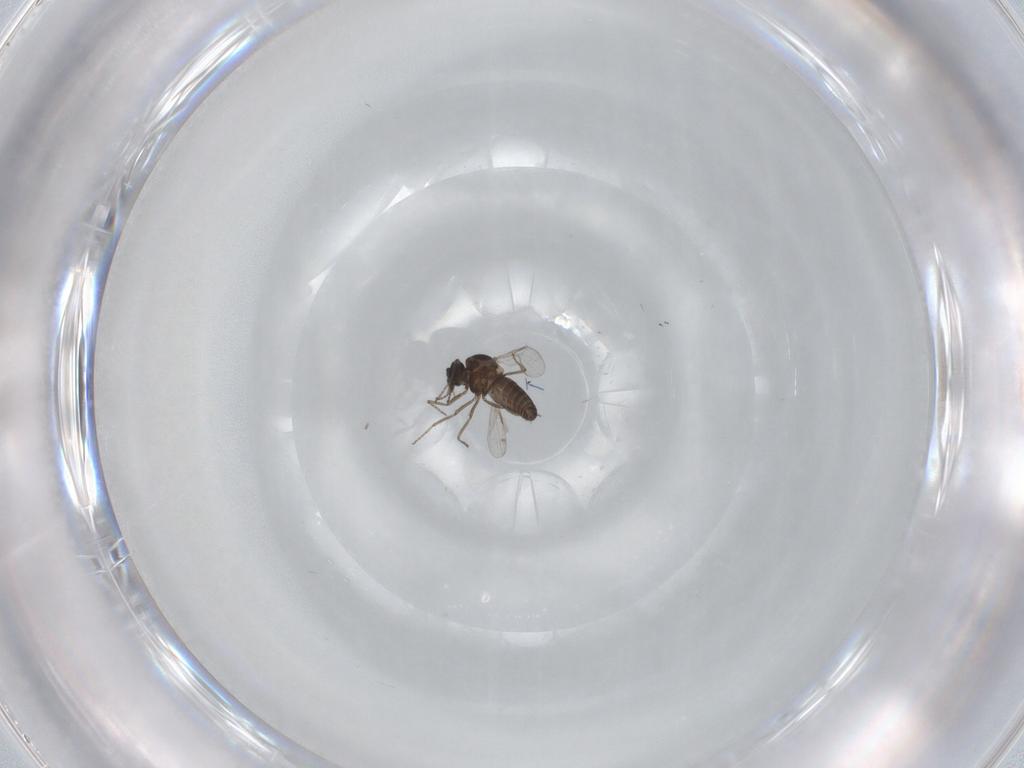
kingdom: Animalia
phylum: Arthropoda
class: Insecta
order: Diptera
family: Ceratopogonidae
